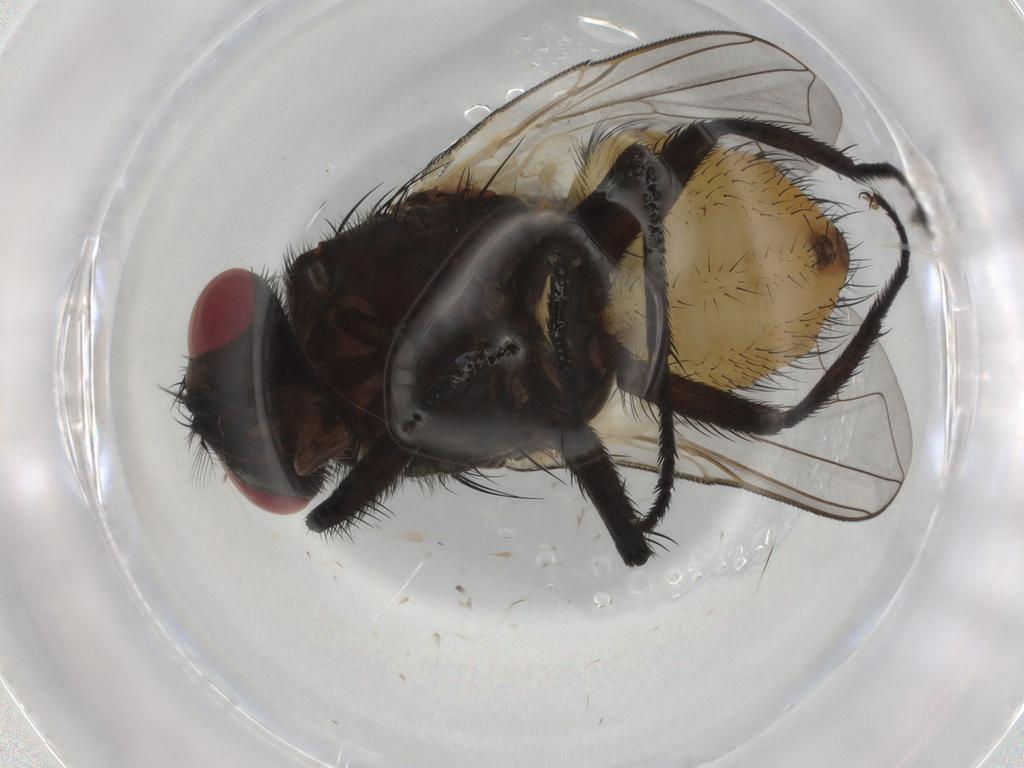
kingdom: Animalia
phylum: Arthropoda
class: Insecta
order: Diptera
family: Muscidae
